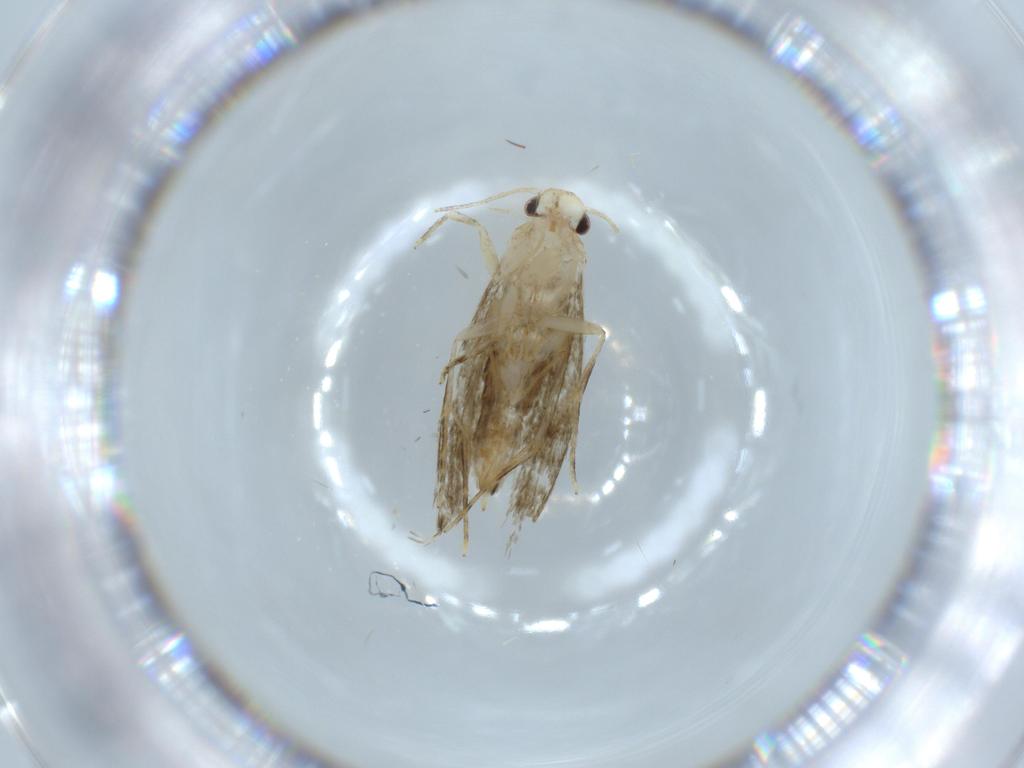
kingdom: Animalia
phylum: Arthropoda
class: Insecta
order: Lepidoptera
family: Tineidae
